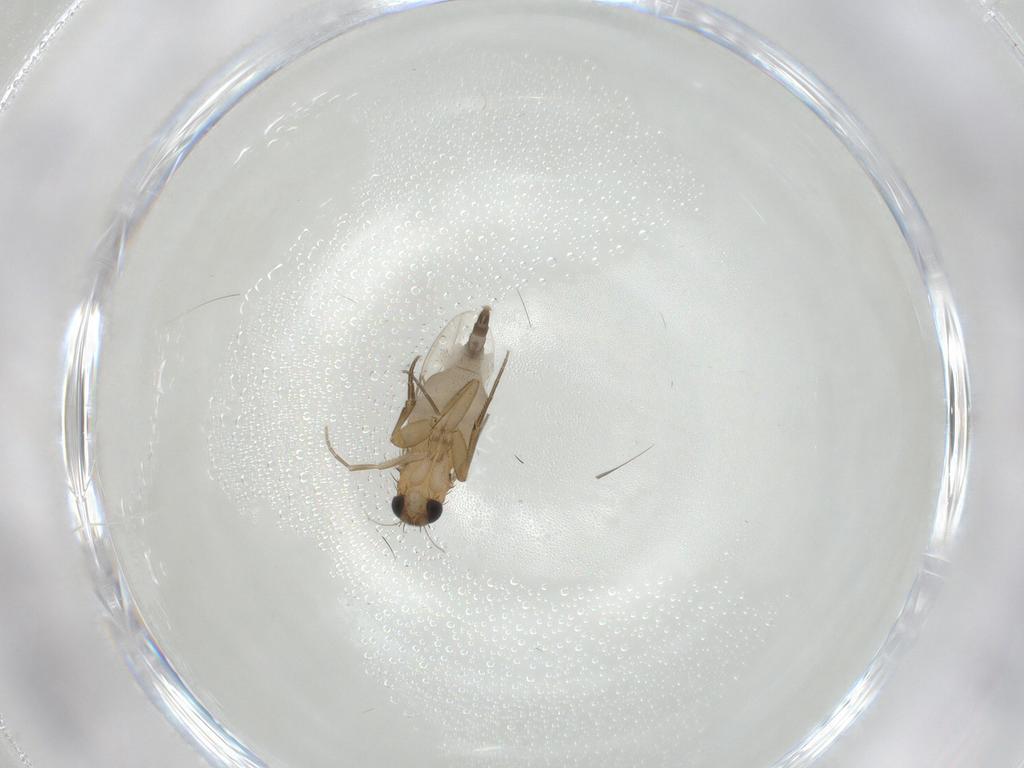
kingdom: Animalia
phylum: Arthropoda
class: Insecta
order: Diptera
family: Phoridae
